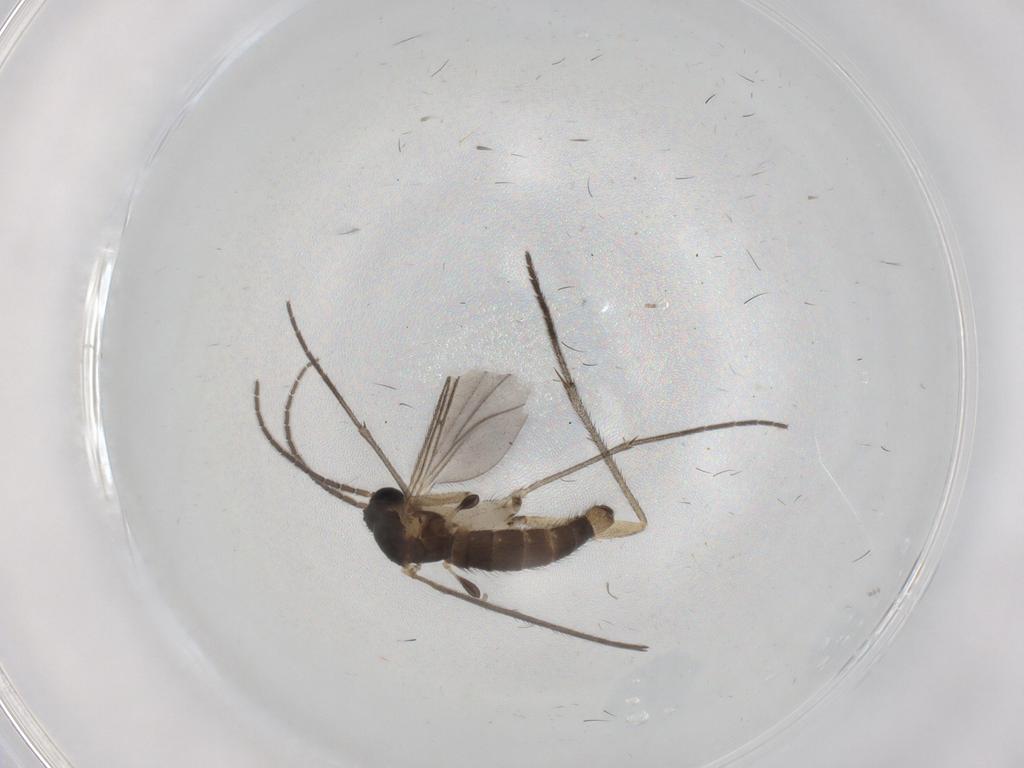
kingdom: Animalia
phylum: Arthropoda
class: Insecta
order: Diptera
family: Sciaridae
